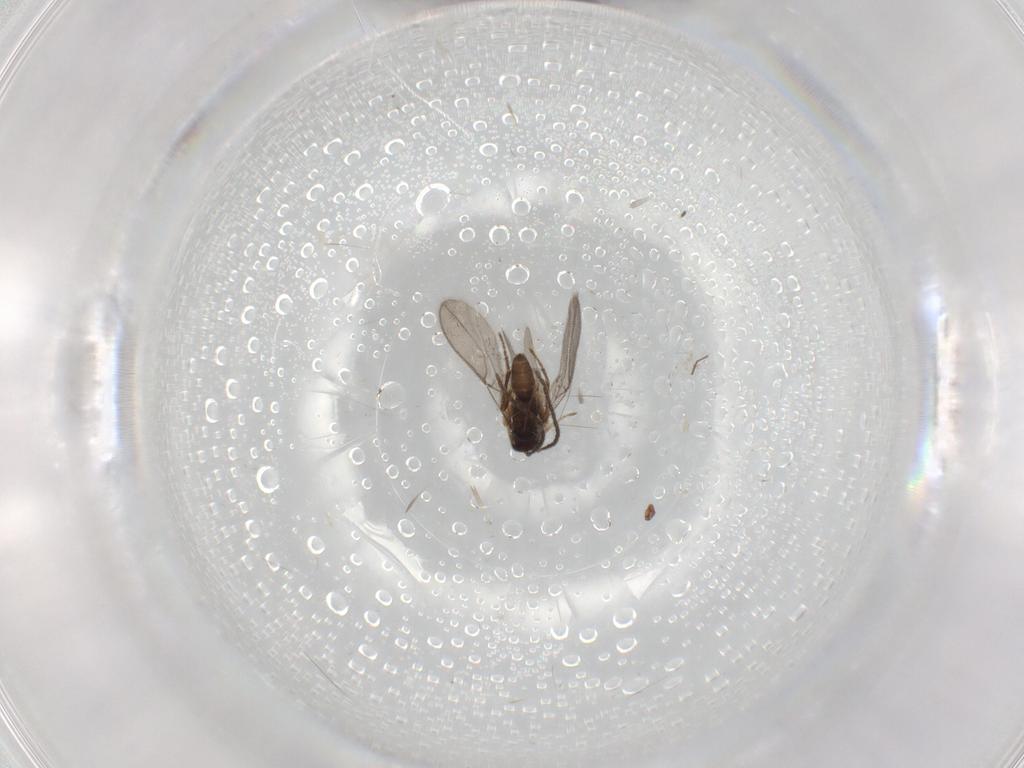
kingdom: Animalia
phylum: Arthropoda
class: Insecta
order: Hymenoptera
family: Formicidae
